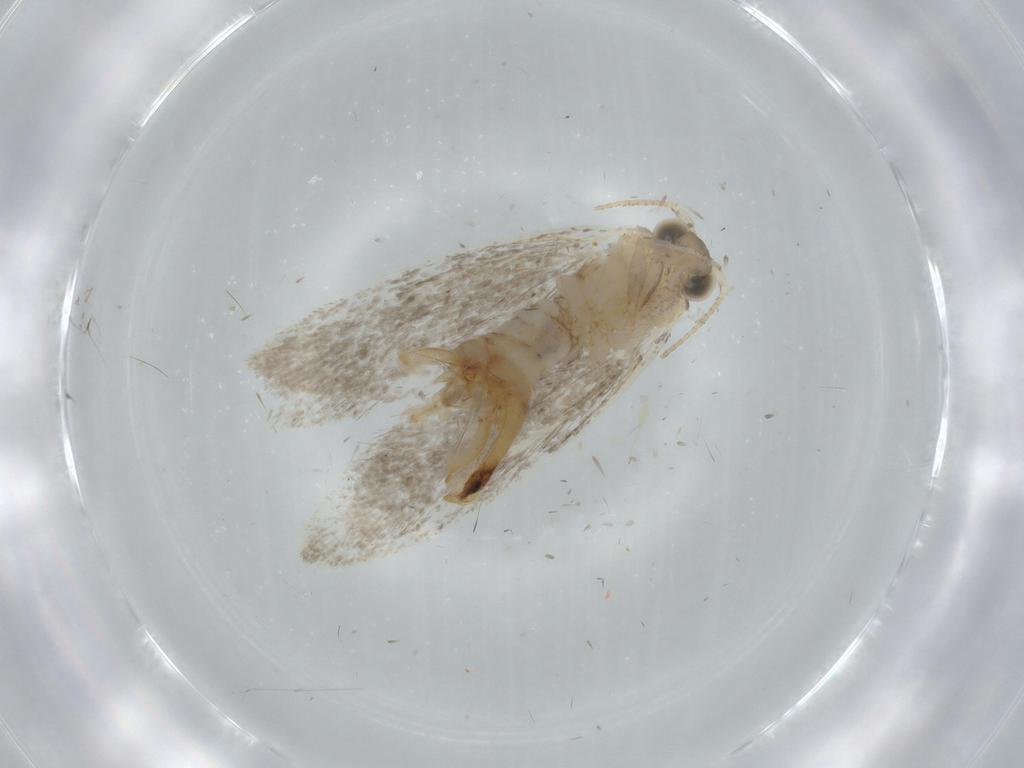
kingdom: Animalia
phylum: Arthropoda
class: Insecta
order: Lepidoptera
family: Tineidae
